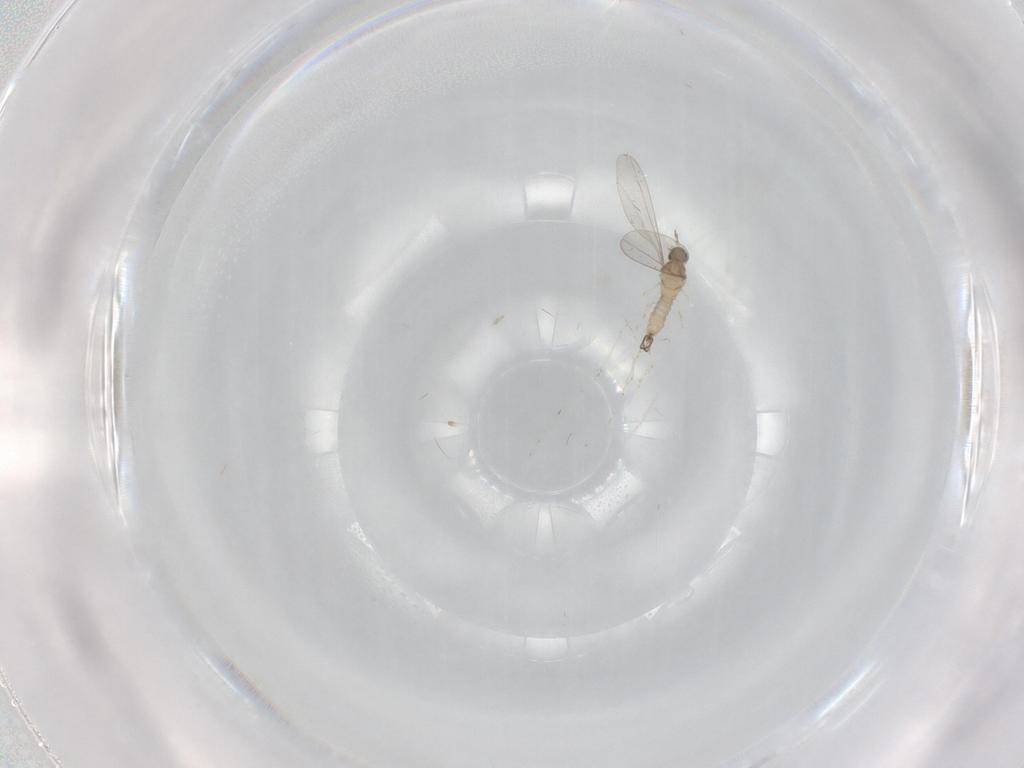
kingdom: Animalia
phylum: Arthropoda
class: Insecta
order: Diptera
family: Cecidomyiidae
